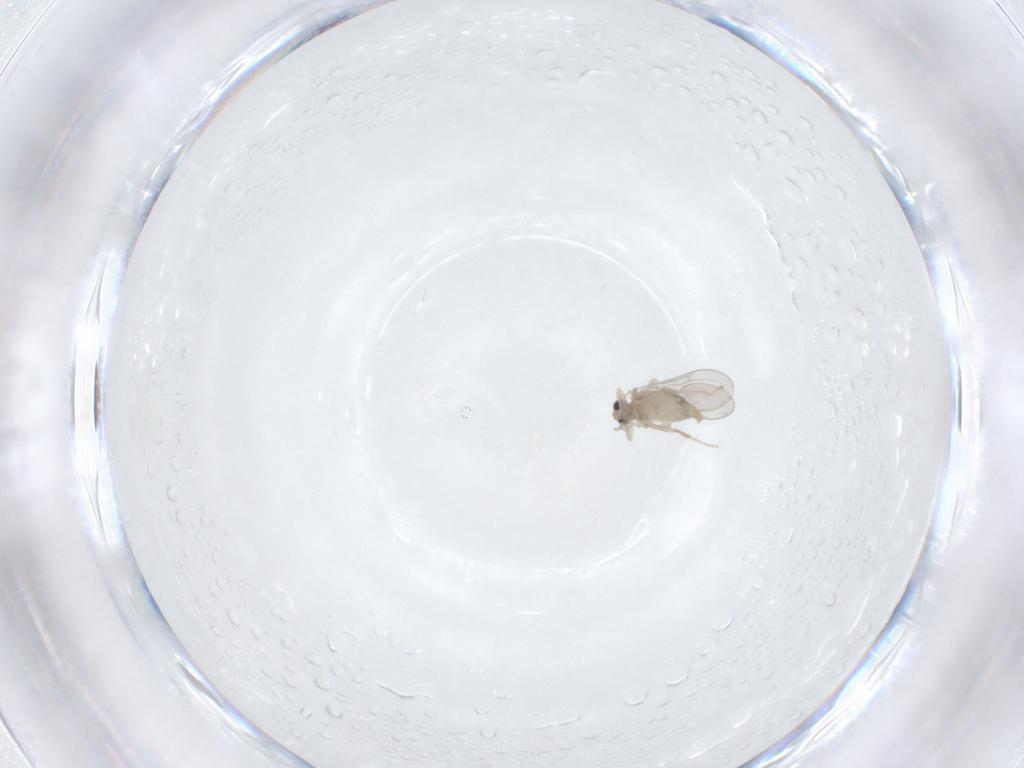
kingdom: Animalia
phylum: Arthropoda
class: Insecta
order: Diptera
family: Cecidomyiidae
